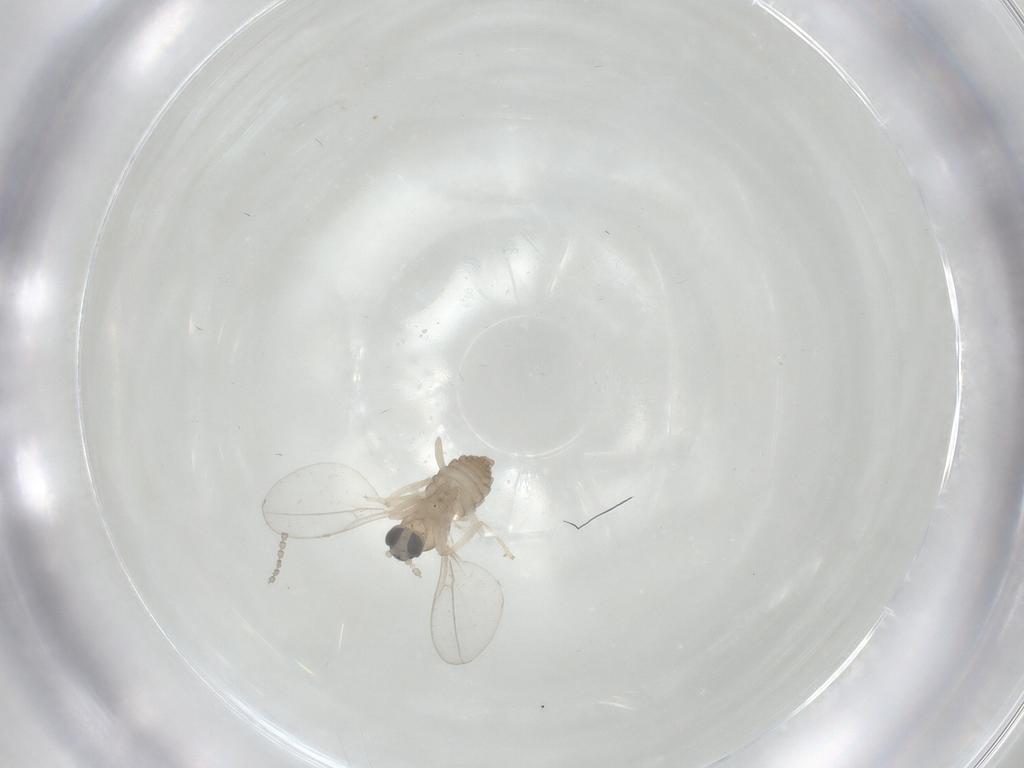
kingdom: Animalia
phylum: Arthropoda
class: Insecta
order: Diptera
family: Cecidomyiidae
